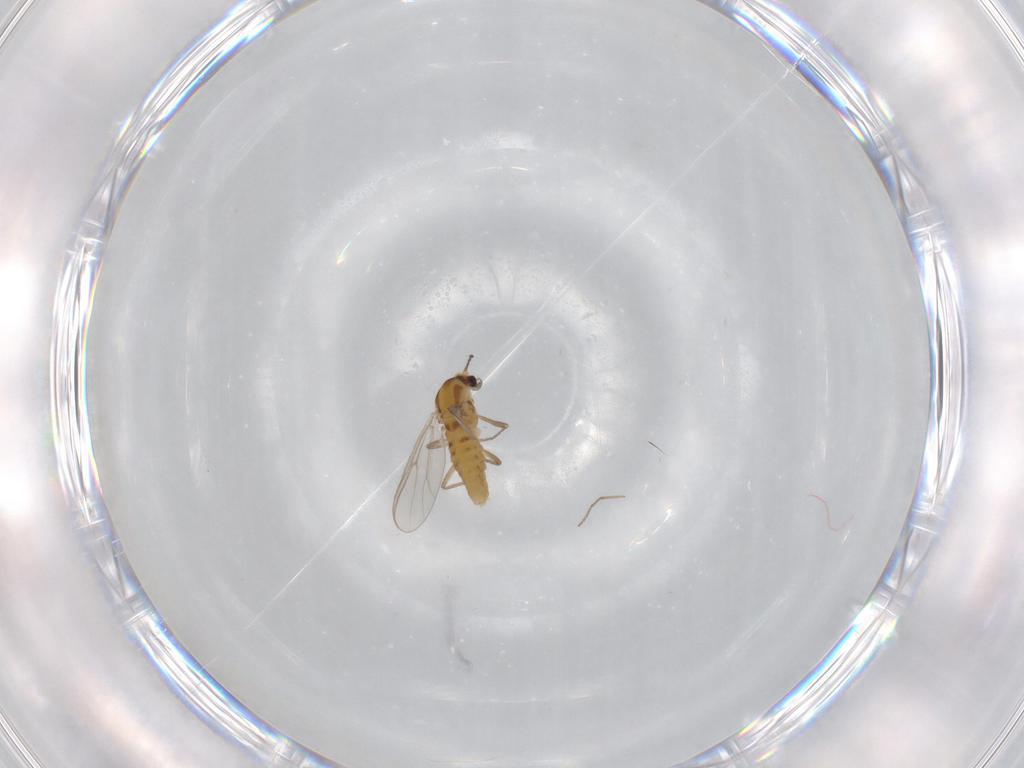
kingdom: Animalia
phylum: Arthropoda
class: Insecta
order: Diptera
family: Chironomidae
